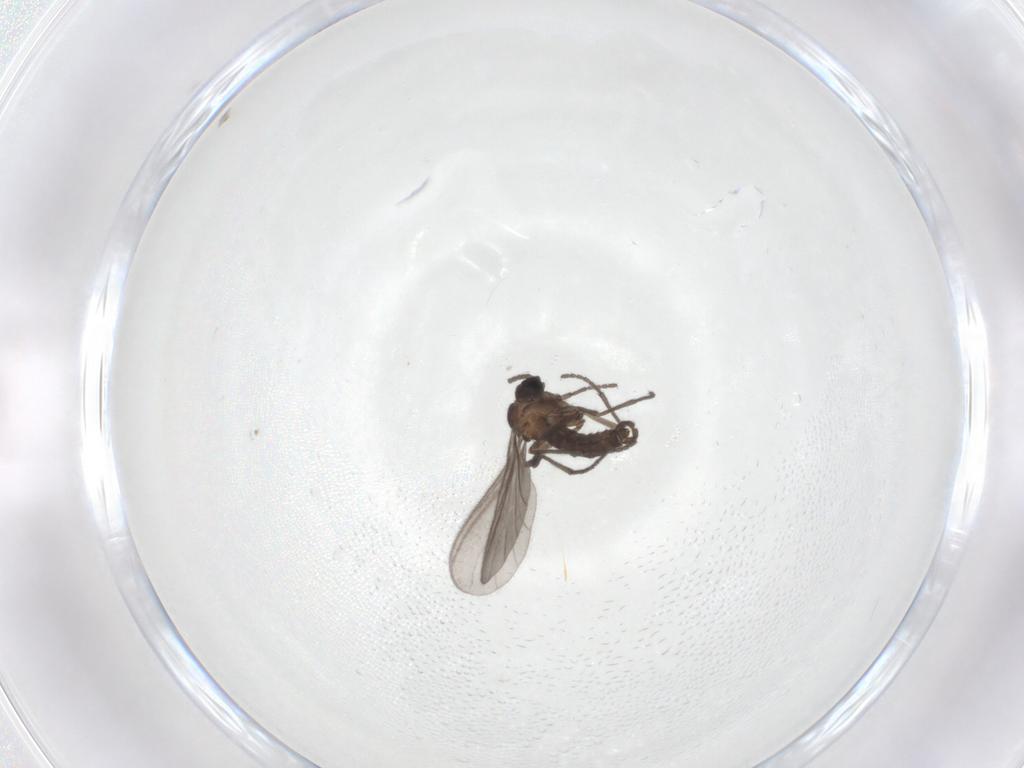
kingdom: Animalia
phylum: Arthropoda
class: Insecta
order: Diptera
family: Sciaridae
